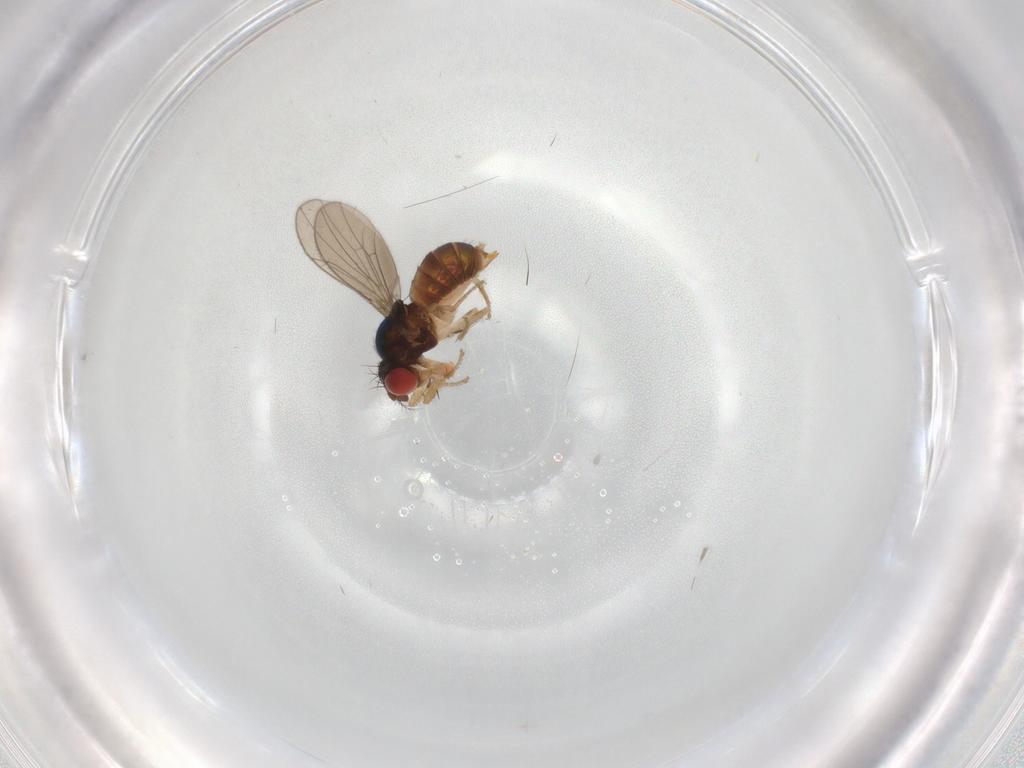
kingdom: Animalia
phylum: Arthropoda
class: Insecta
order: Diptera
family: Drosophilidae
